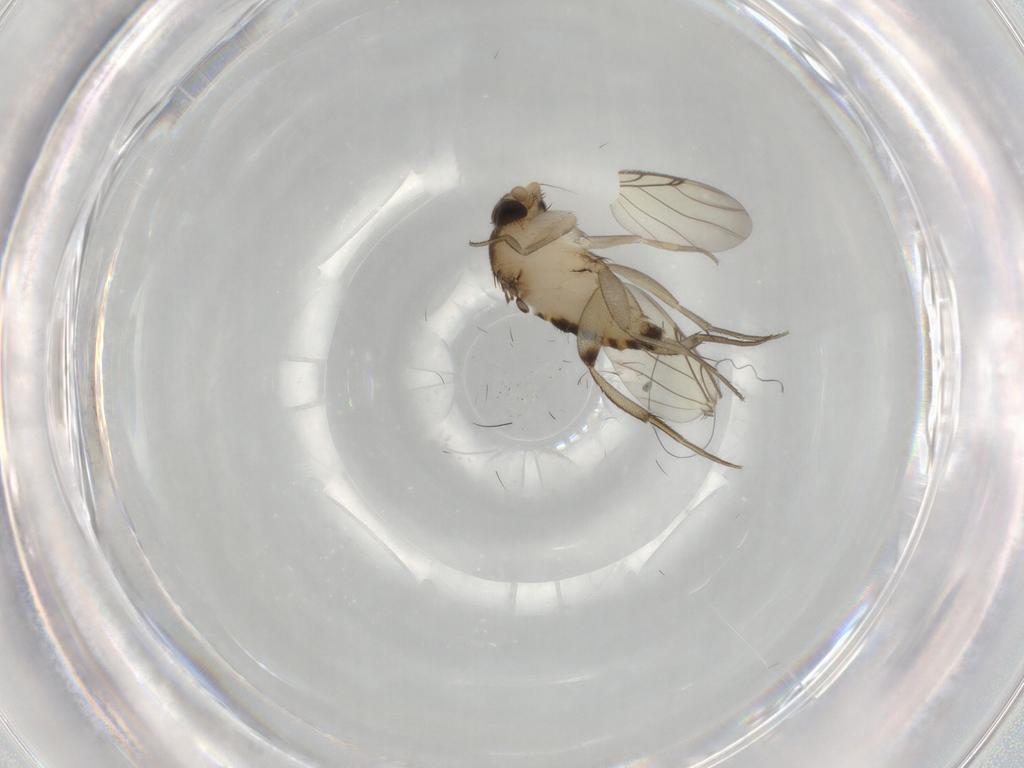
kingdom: Animalia
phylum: Arthropoda
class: Insecta
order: Diptera
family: Phoridae
